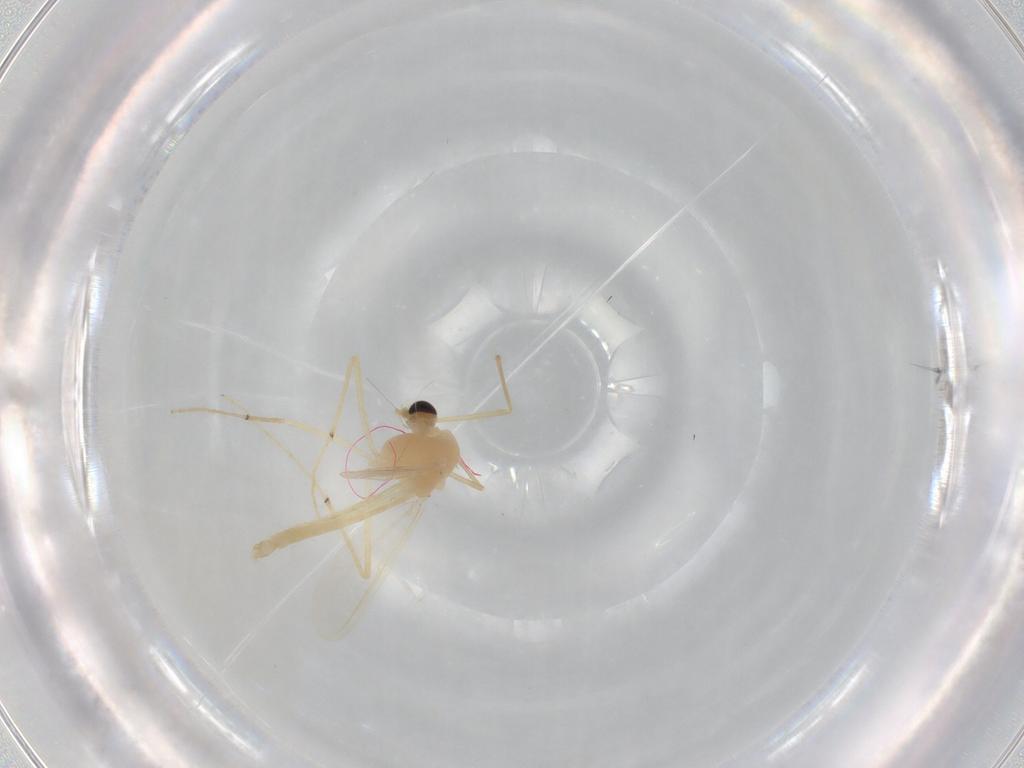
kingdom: Animalia
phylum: Arthropoda
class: Insecta
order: Diptera
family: Chironomidae
